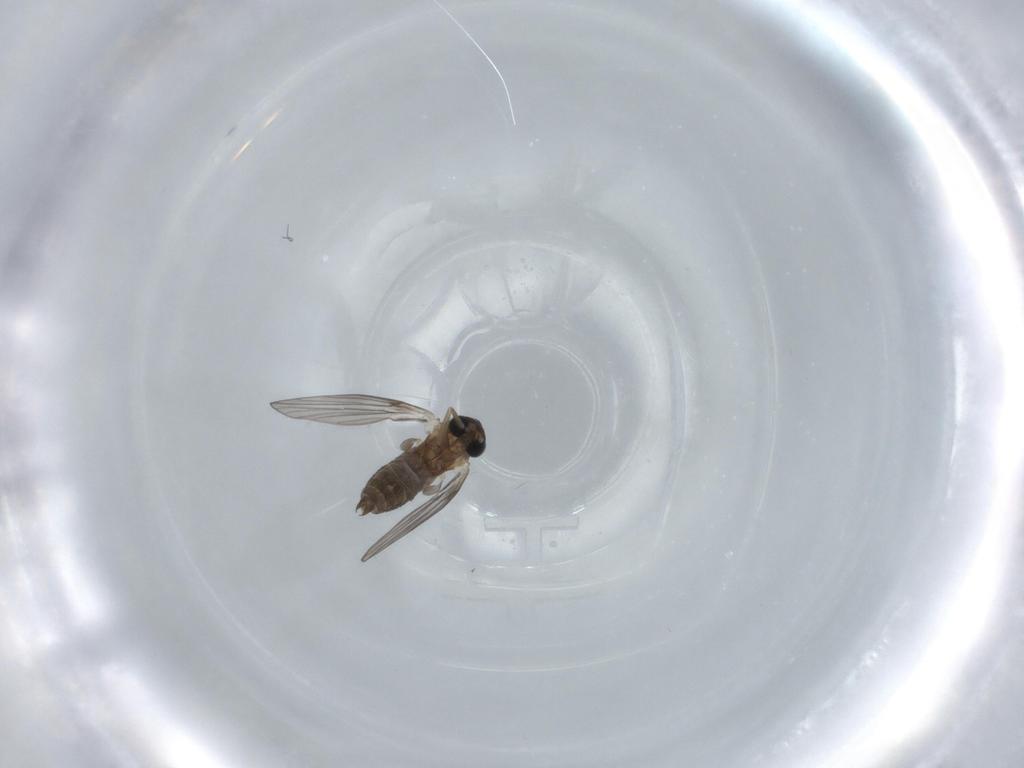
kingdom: Animalia
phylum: Arthropoda
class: Insecta
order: Diptera
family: Psychodidae
